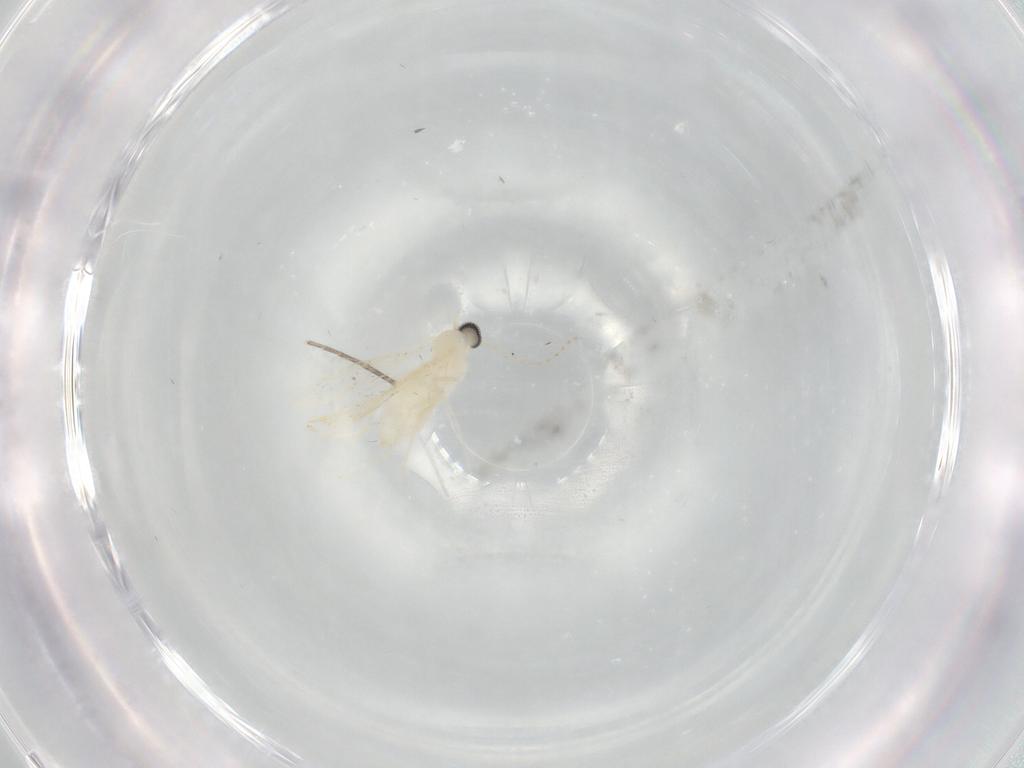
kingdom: Animalia
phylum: Arthropoda
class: Insecta
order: Diptera
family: Cecidomyiidae
